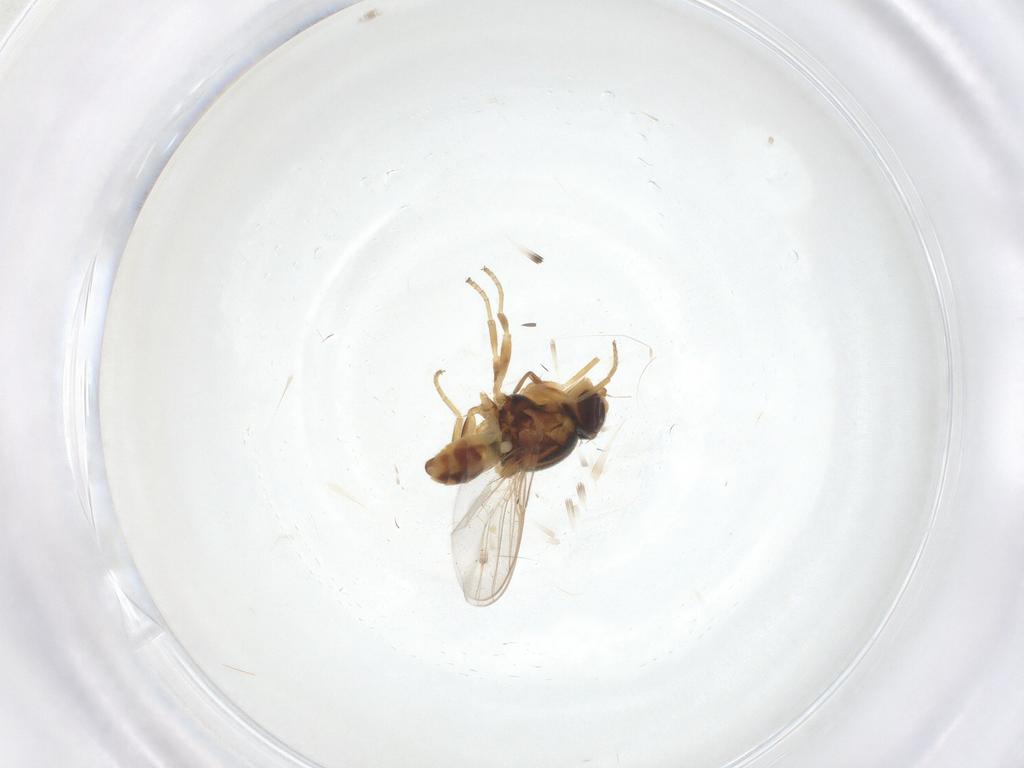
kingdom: Animalia
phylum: Arthropoda
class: Insecta
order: Diptera
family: Chloropidae
